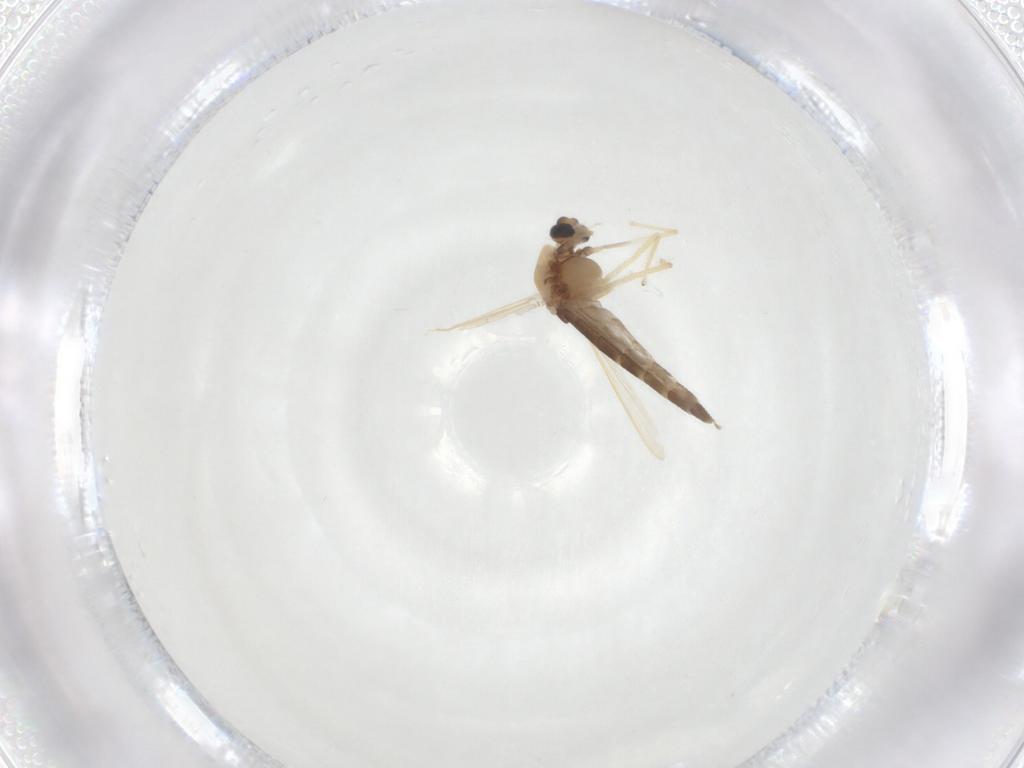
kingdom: Animalia
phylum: Arthropoda
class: Insecta
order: Diptera
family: Chironomidae
